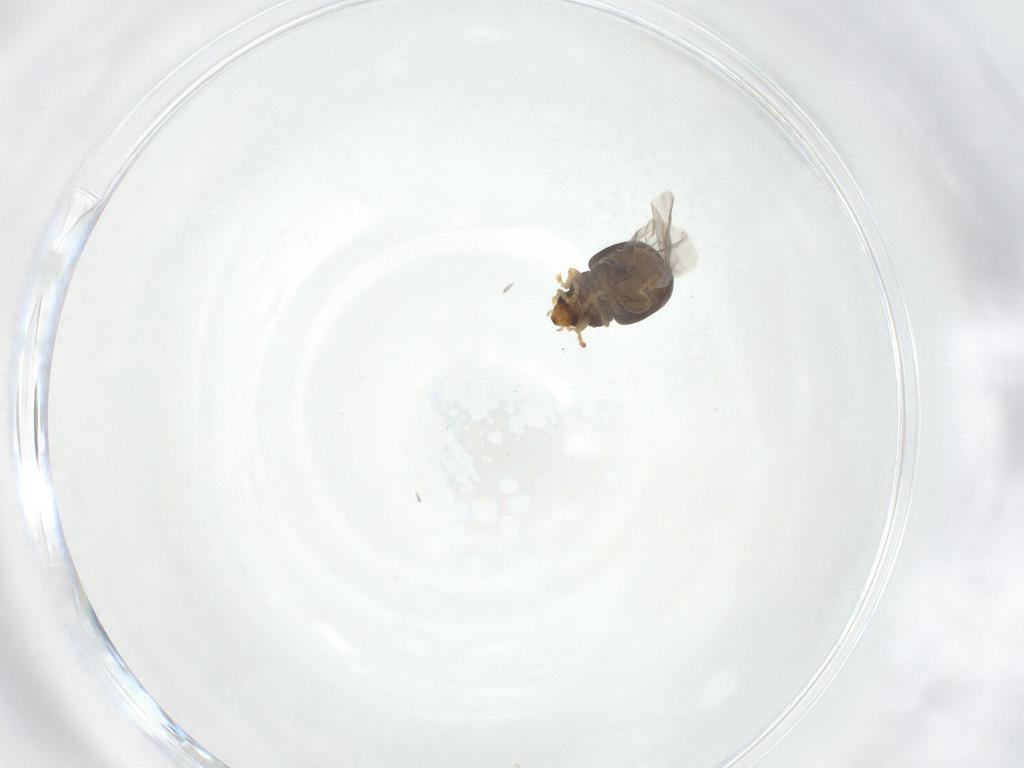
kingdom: Animalia
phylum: Arthropoda
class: Insecta
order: Coleoptera
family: Chrysomelidae
